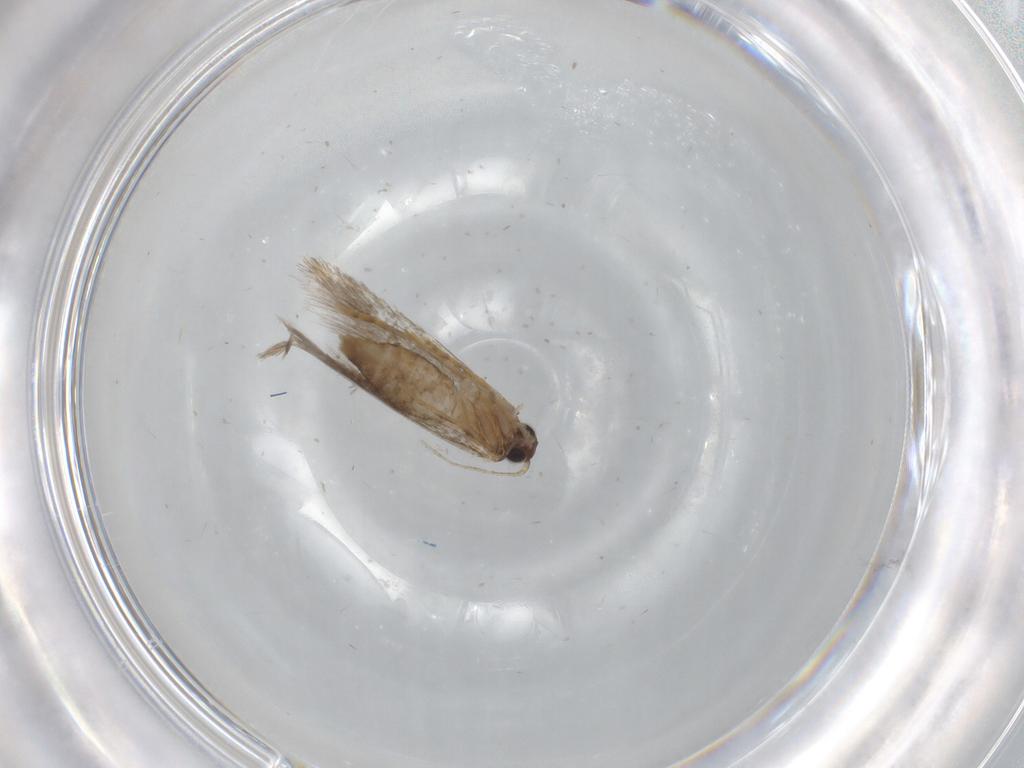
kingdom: Animalia
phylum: Arthropoda
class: Insecta
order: Lepidoptera
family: Tineidae
